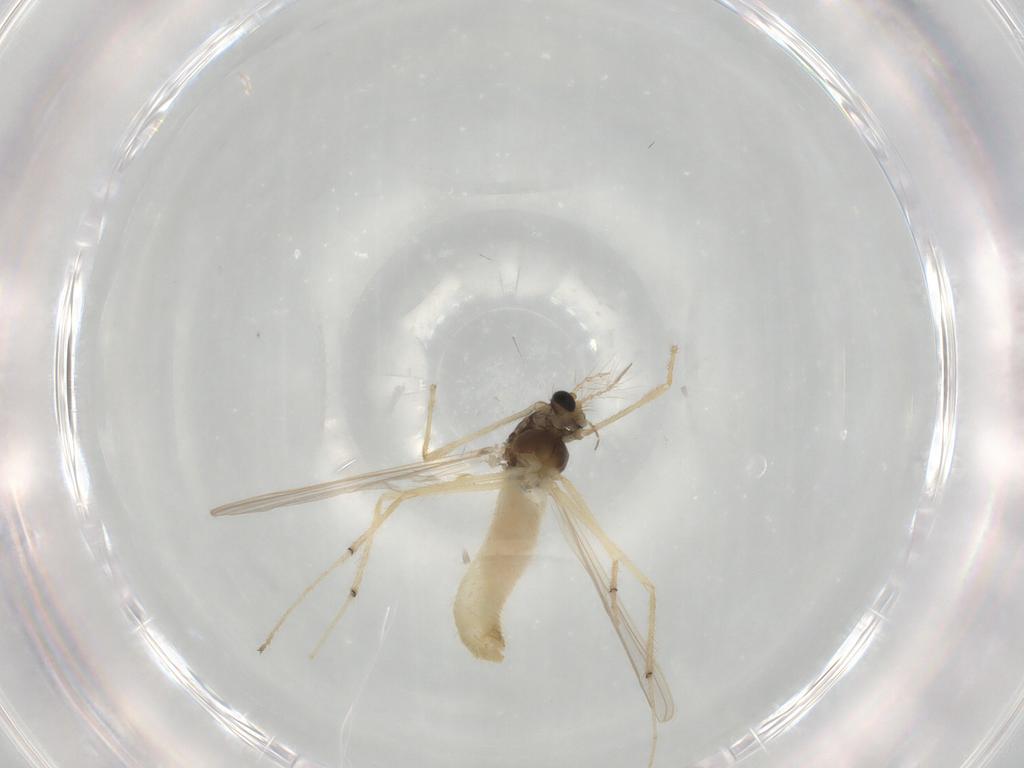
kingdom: Animalia
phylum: Arthropoda
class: Insecta
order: Diptera
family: Chironomidae
